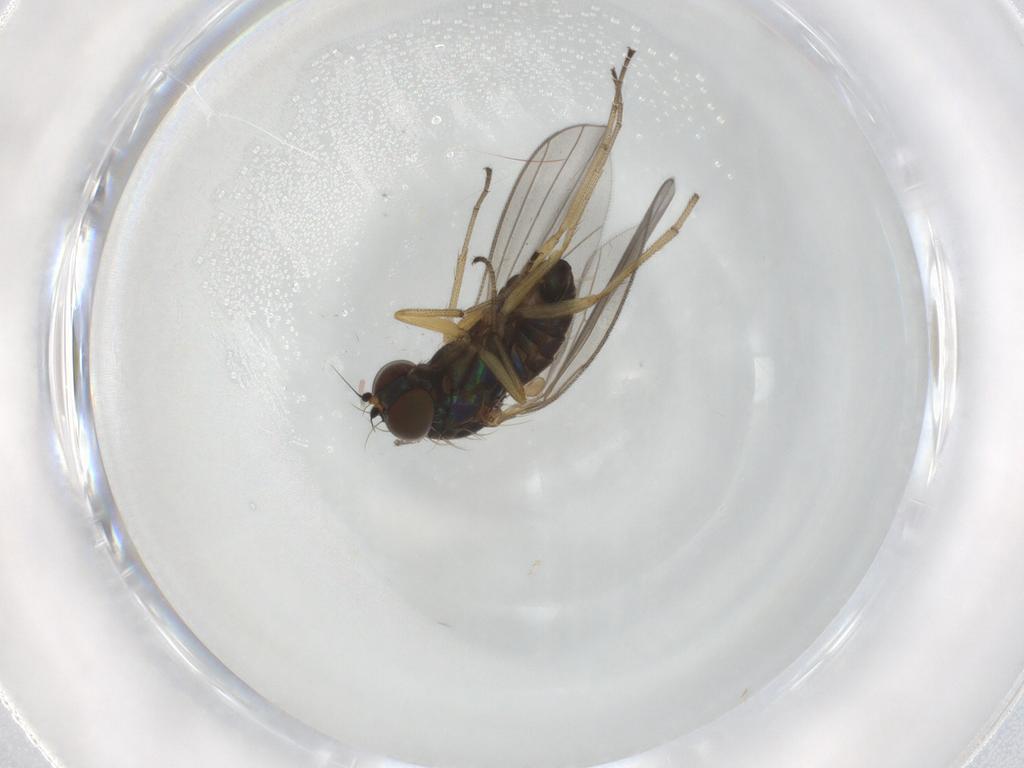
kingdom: Animalia
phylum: Arthropoda
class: Insecta
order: Diptera
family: Dolichopodidae
